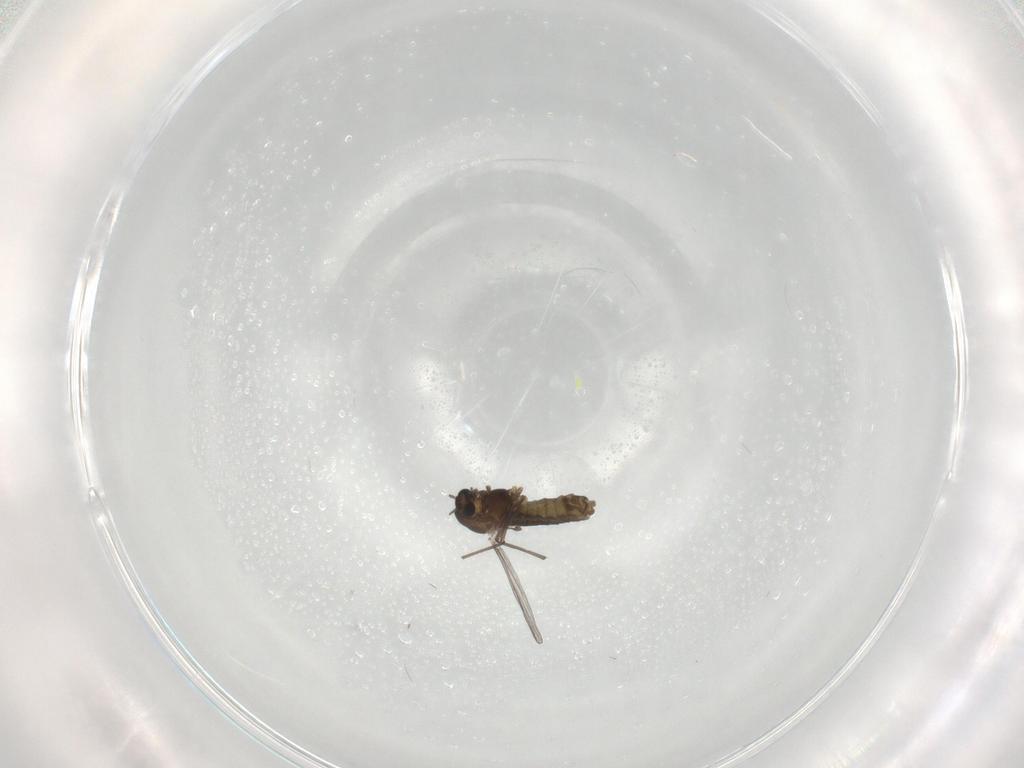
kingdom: Animalia
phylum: Arthropoda
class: Insecta
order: Diptera
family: Chironomidae
